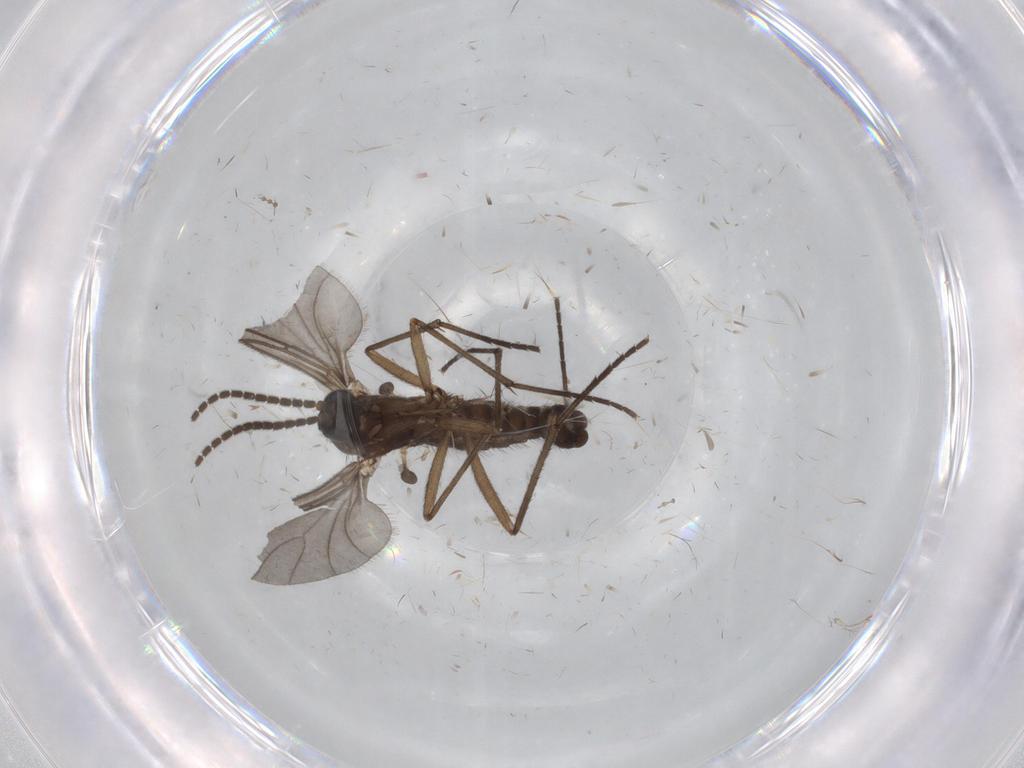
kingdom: Animalia
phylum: Arthropoda
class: Insecta
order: Diptera
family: Sciaridae
